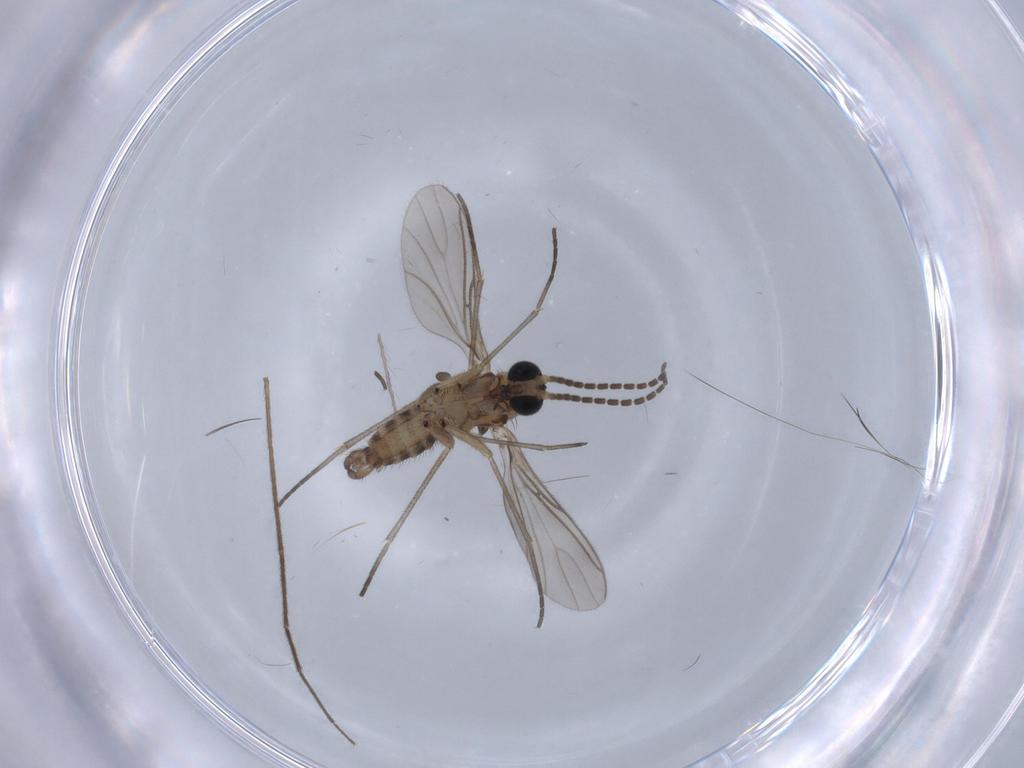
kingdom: Animalia
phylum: Arthropoda
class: Insecta
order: Diptera
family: Sciaridae
